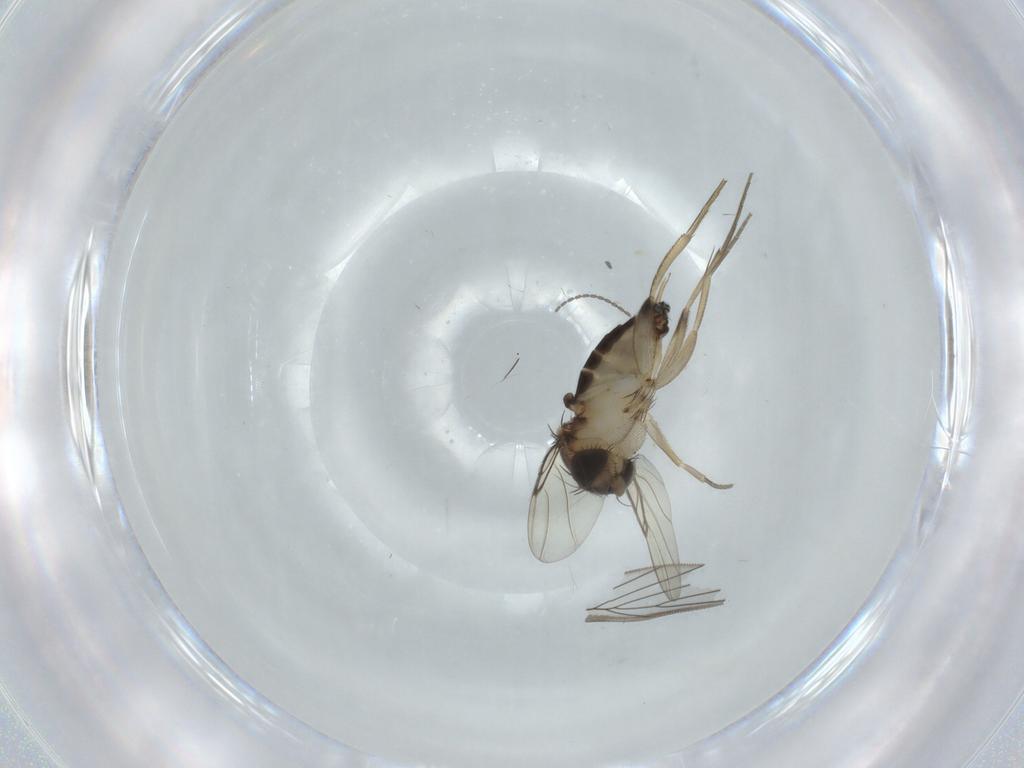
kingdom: Animalia
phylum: Arthropoda
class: Insecta
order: Diptera
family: Phoridae
